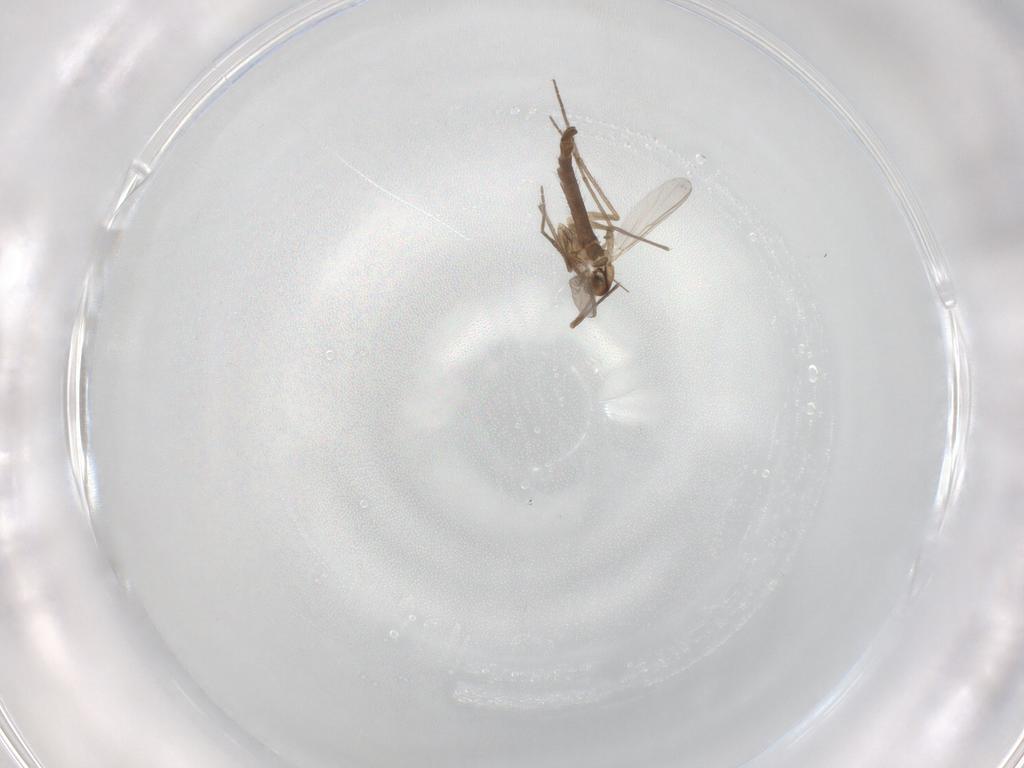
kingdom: Animalia
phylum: Arthropoda
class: Insecta
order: Diptera
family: Chironomidae
